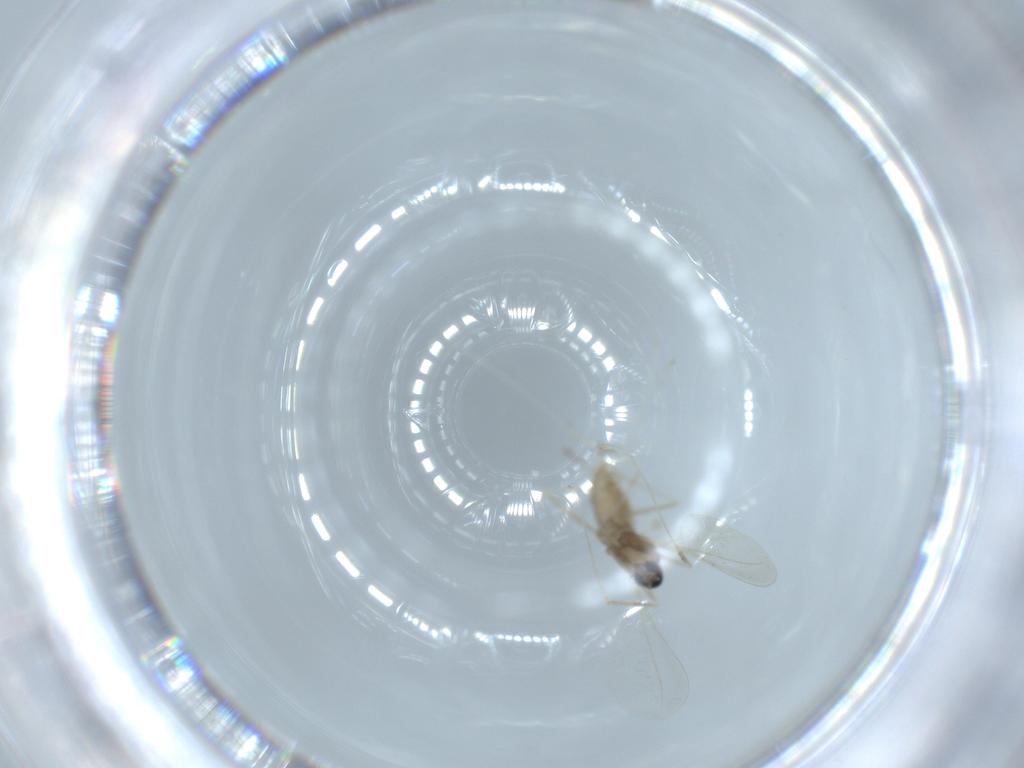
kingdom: Animalia
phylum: Arthropoda
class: Insecta
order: Diptera
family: Cecidomyiidae
